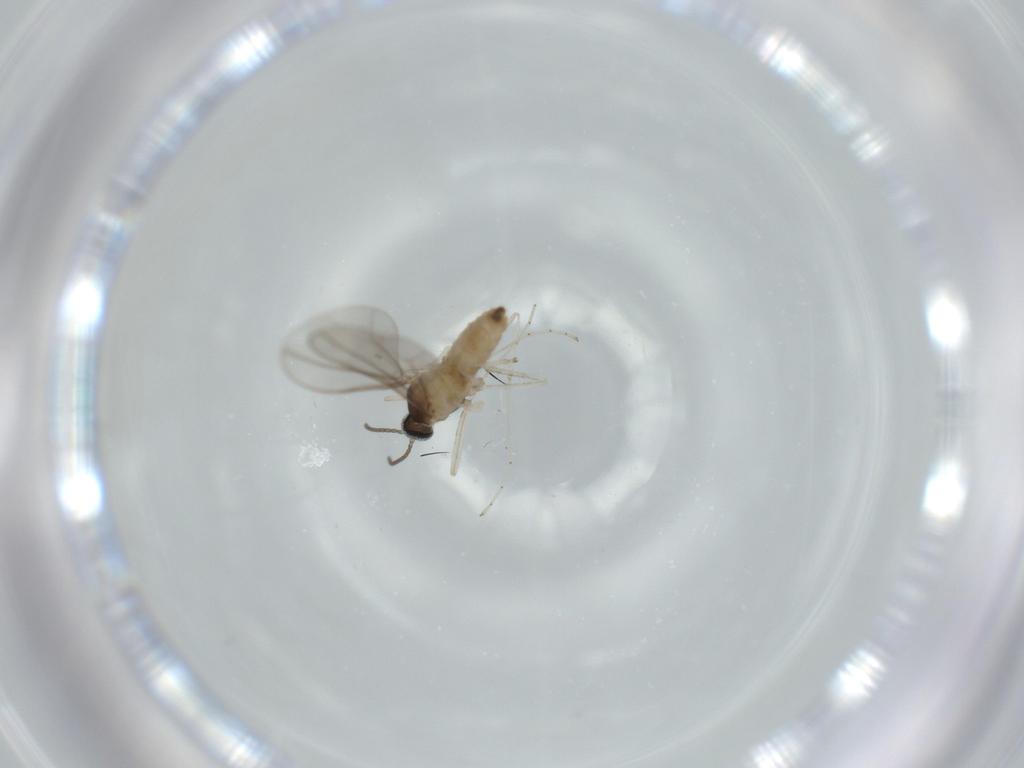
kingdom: Animalia
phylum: Arthropoda
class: Insecta
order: Diptera
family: Cecidomyiidae
